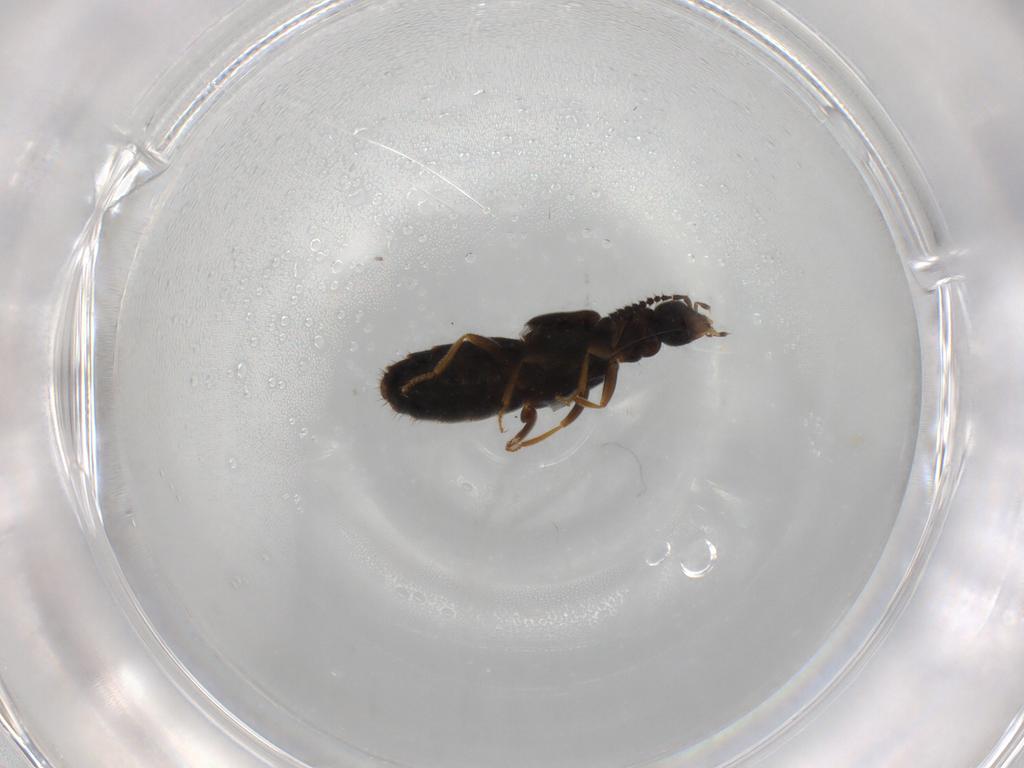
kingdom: Animalia
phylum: Arthropoda
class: Insecta
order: Coleoptera
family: Staphylinidae
